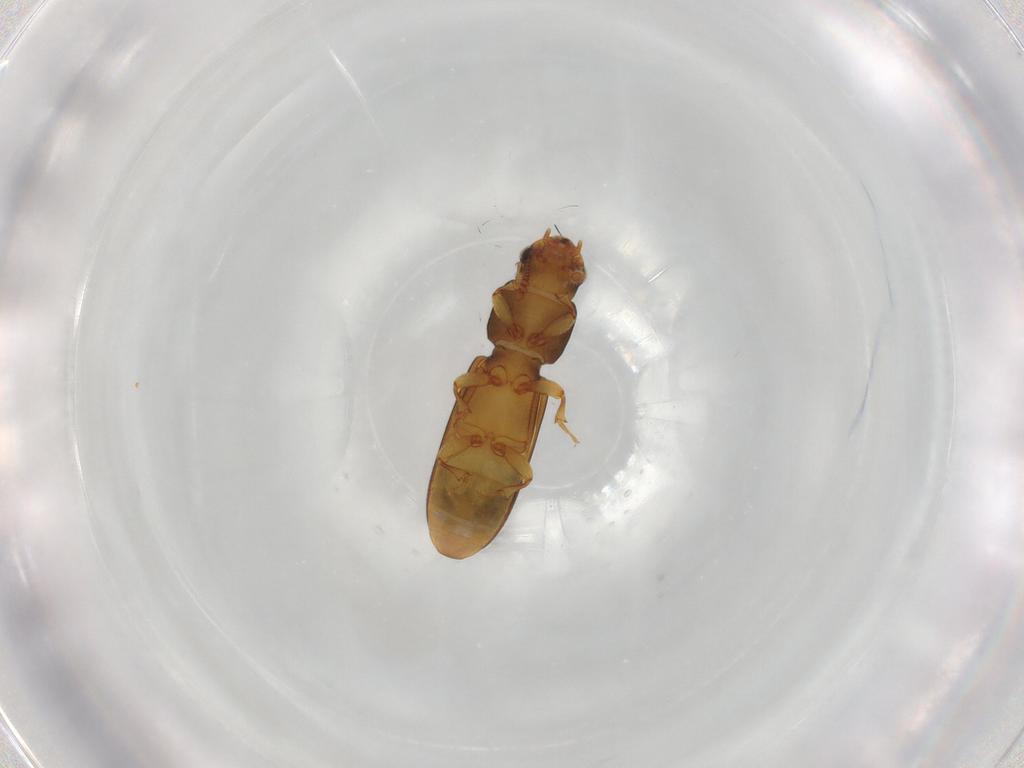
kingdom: Animalia
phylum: Arthropoda
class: Insecta
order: Coleoptera
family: Salpingidae
